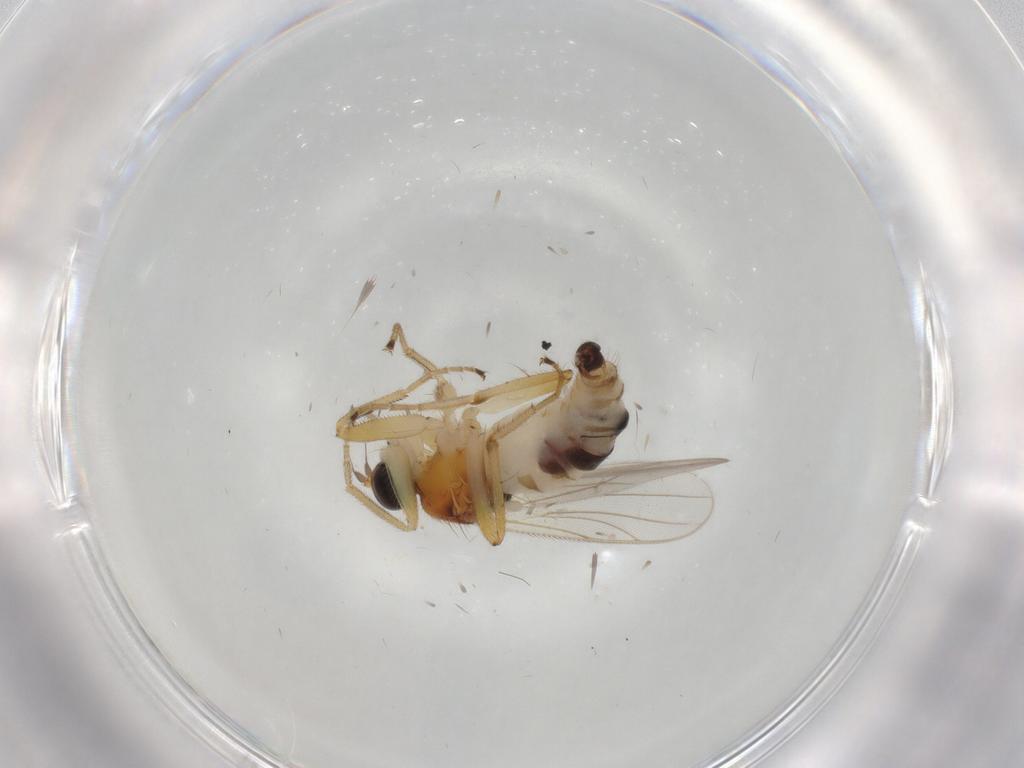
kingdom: Animalia
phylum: Arthropoda
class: Insecta
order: Diptera
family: Hybotidae
